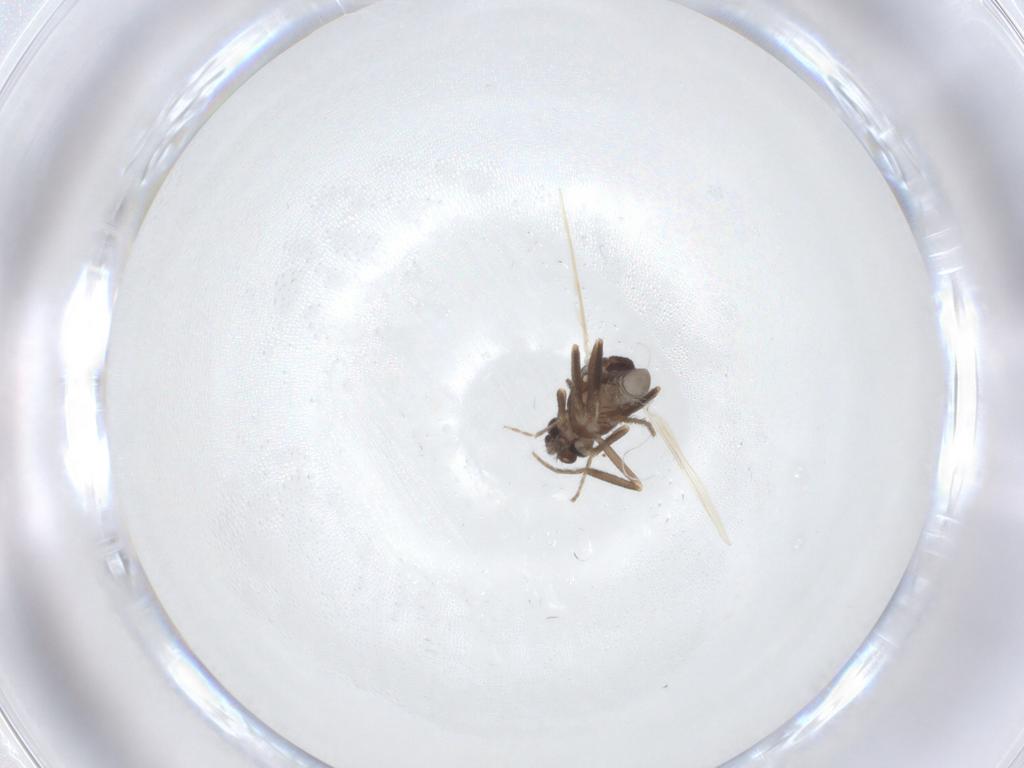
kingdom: Animalia
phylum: Arthropoda
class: Insecta
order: Diptera
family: Ceratopogonidae
